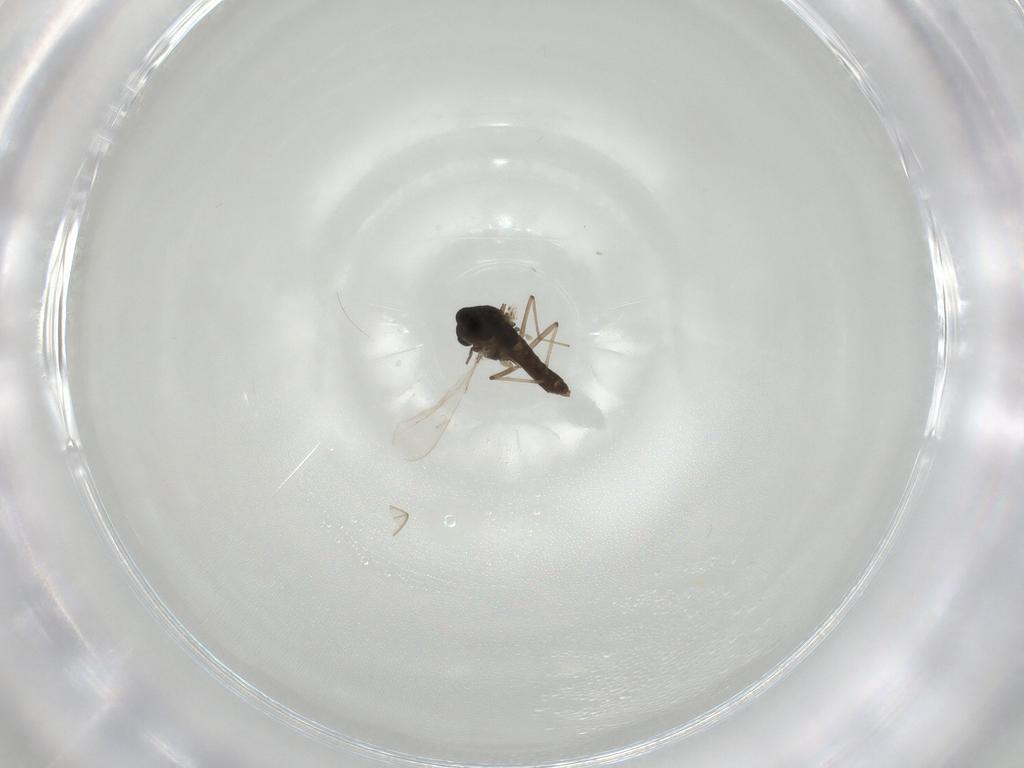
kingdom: Animalia
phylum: Arthropoda
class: Insecta
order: Diptera
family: Chironomidae
